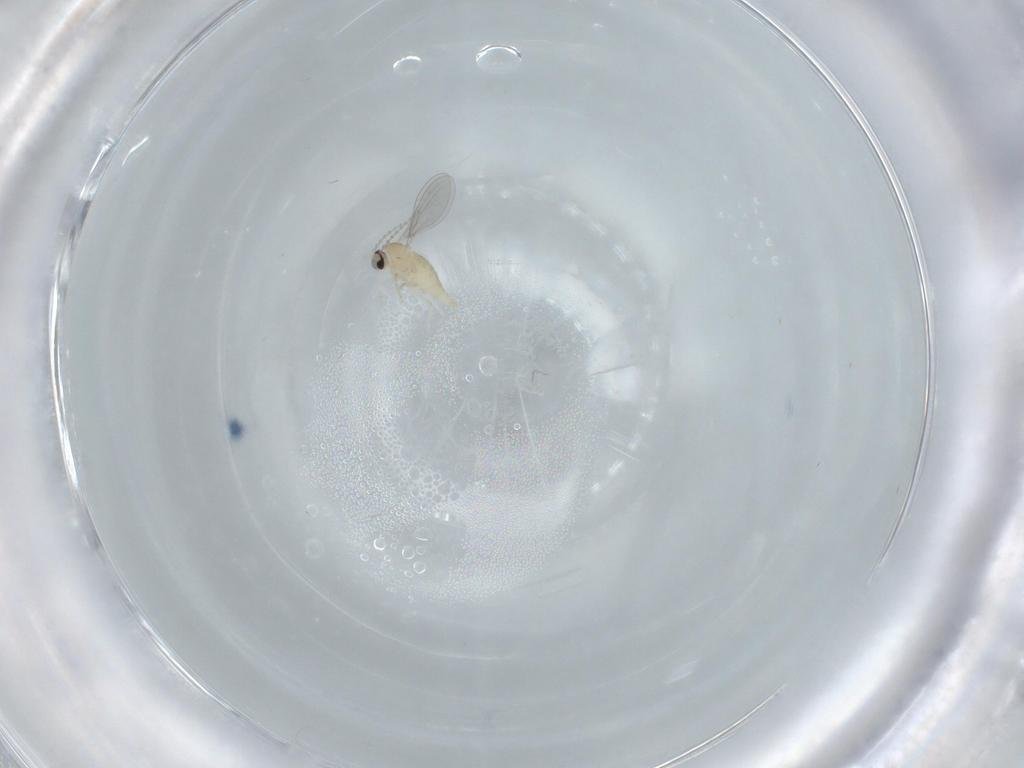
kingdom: Animalia
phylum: Arthropoda
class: Insecta
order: Diptera
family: Cecidomyiidae
